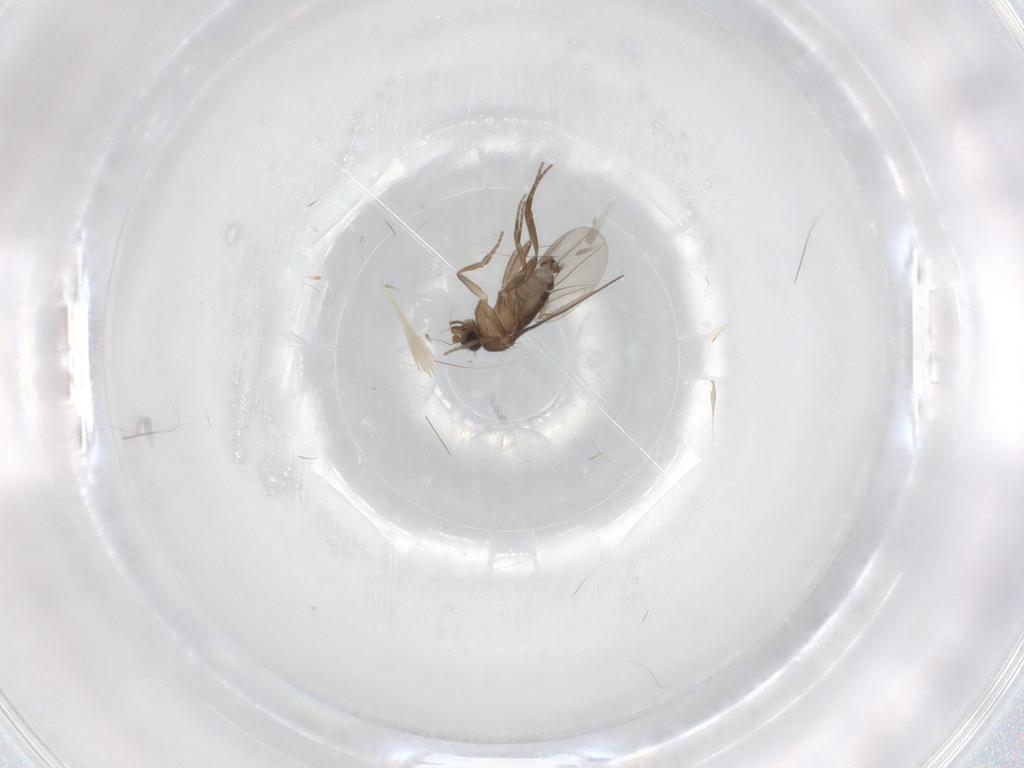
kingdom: Animalia
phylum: Arthropoda
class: Insecta
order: Diptera
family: Phoridae
